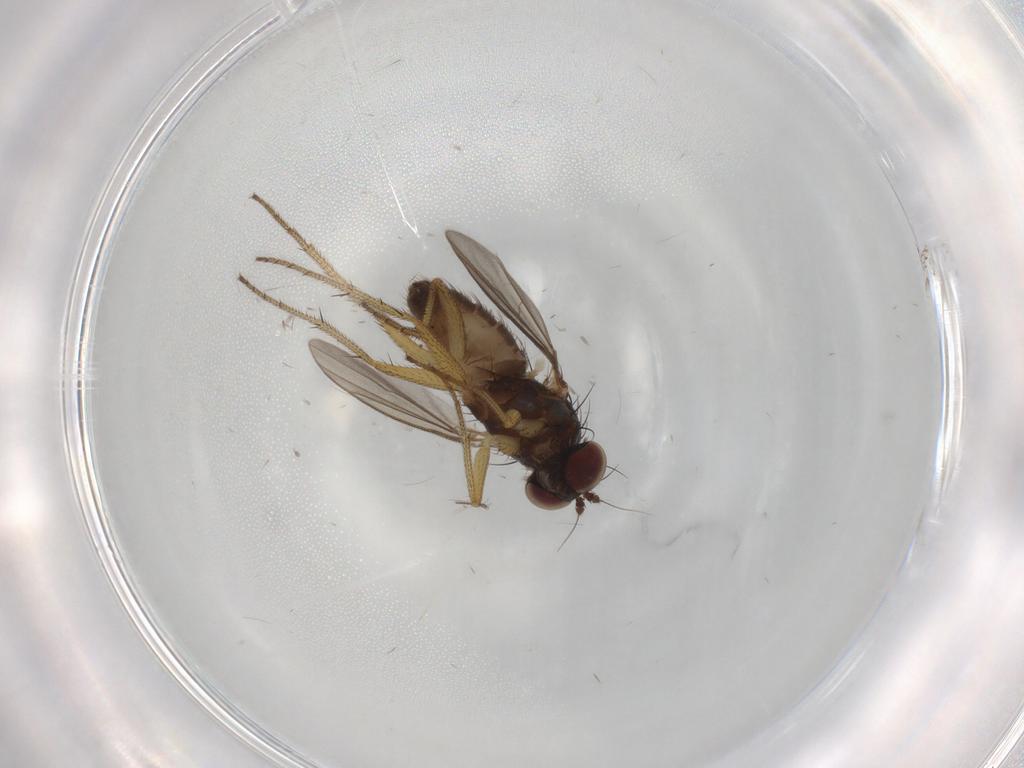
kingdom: Animalia
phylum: Arthropoda
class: Insecta
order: Diptera
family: Dolichopodidae
